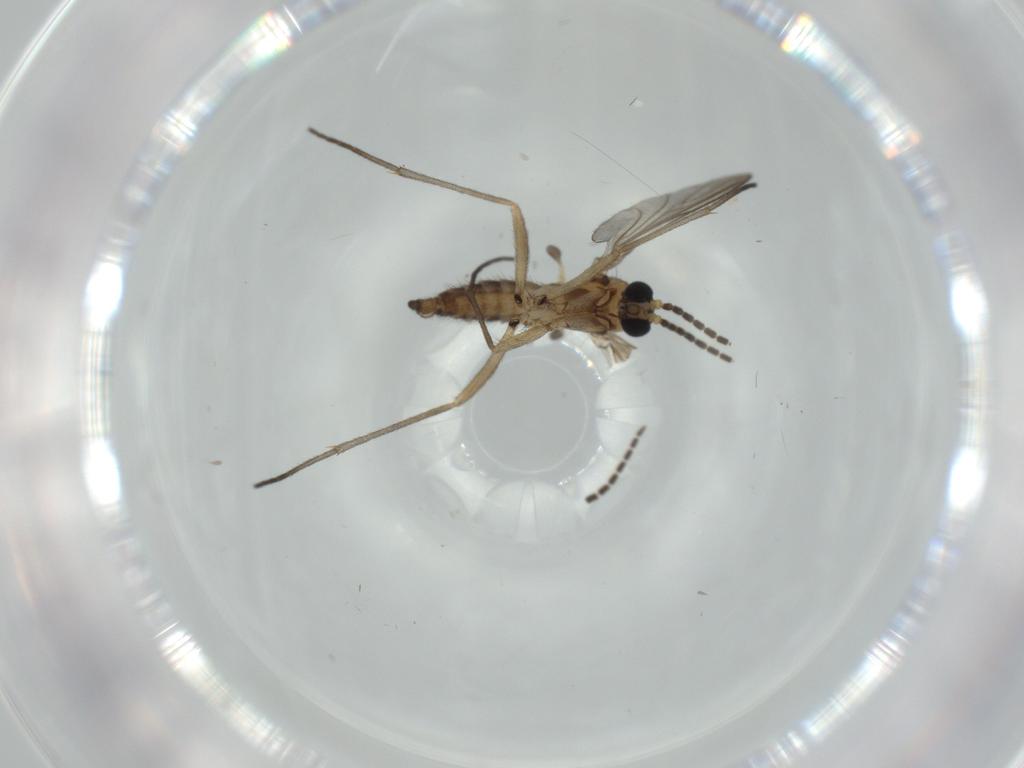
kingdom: Animalia
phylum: Arthropoda
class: Insecta
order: Diptera
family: Sciaridae
